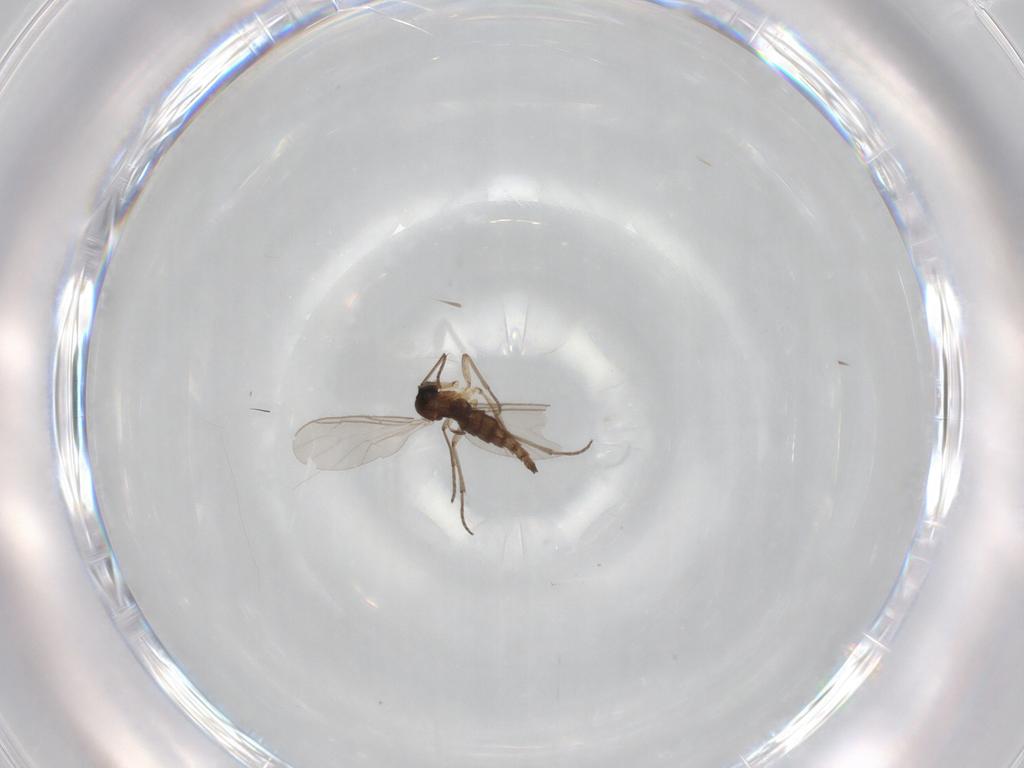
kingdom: Animalia
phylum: Arthropoda
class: Insecta
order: Diptera
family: Sciaridae
